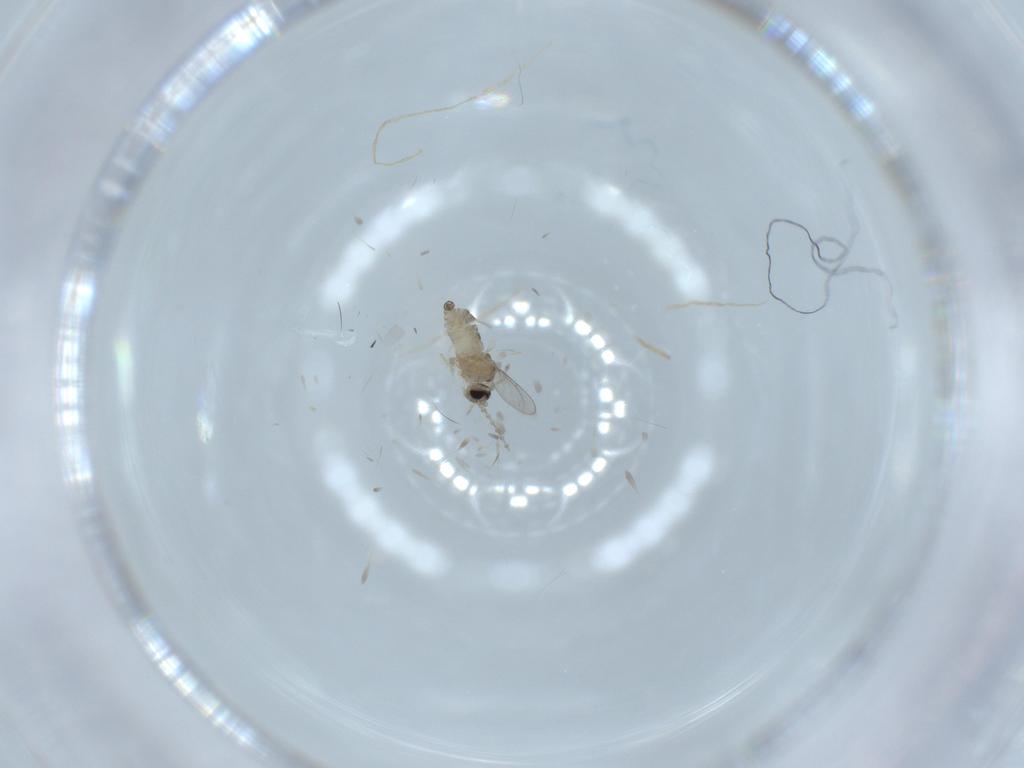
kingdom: Animalia
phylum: Arthropoda
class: Insecta
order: Diptera
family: Cecidomyiidae
